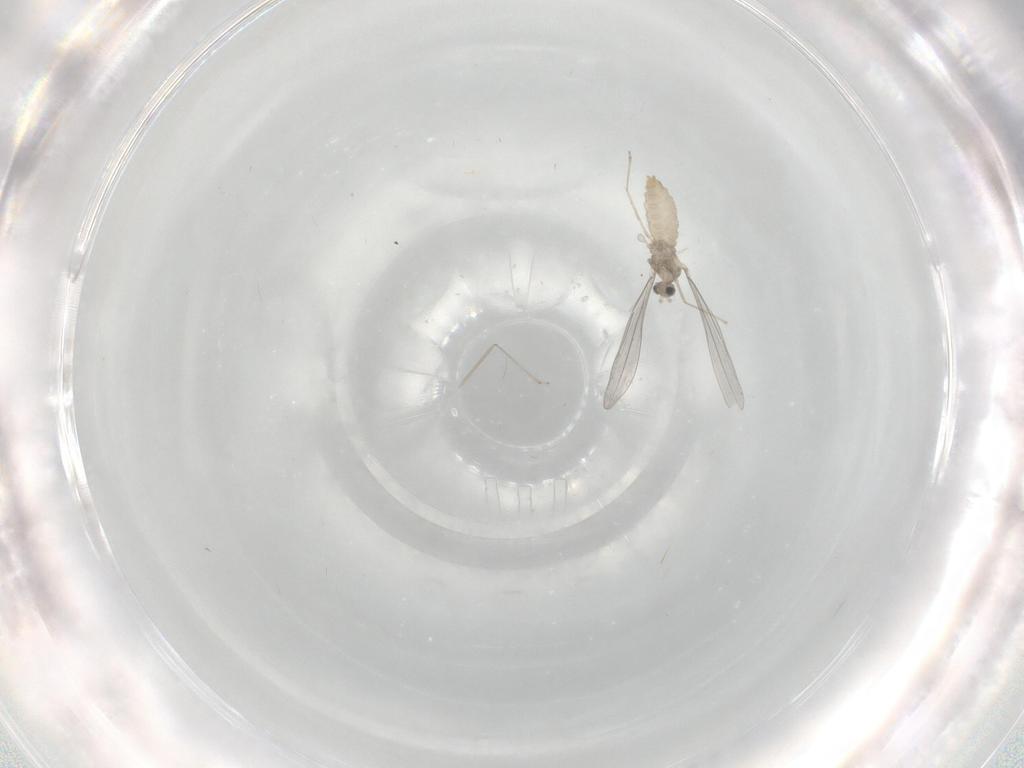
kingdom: Animalia
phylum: Arthropoda
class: Insecta
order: Diptera
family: Cecidomyiidae
